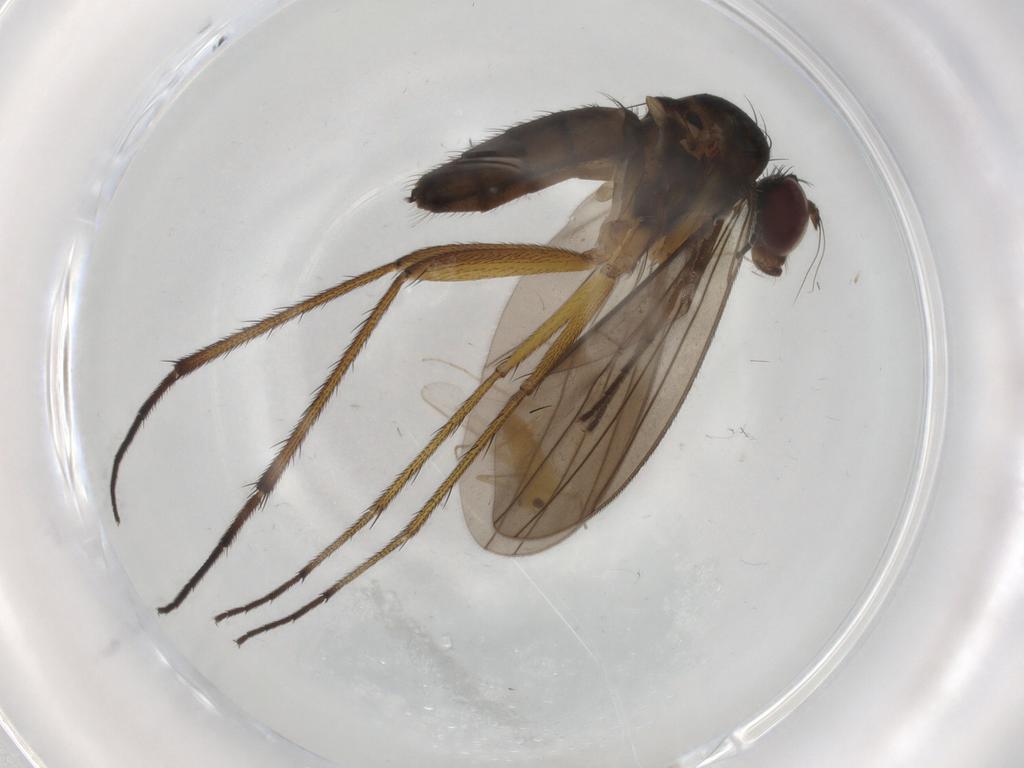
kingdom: Animalia
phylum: Arthropoda
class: Insecta
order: Diptera
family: Dolichopodidae
